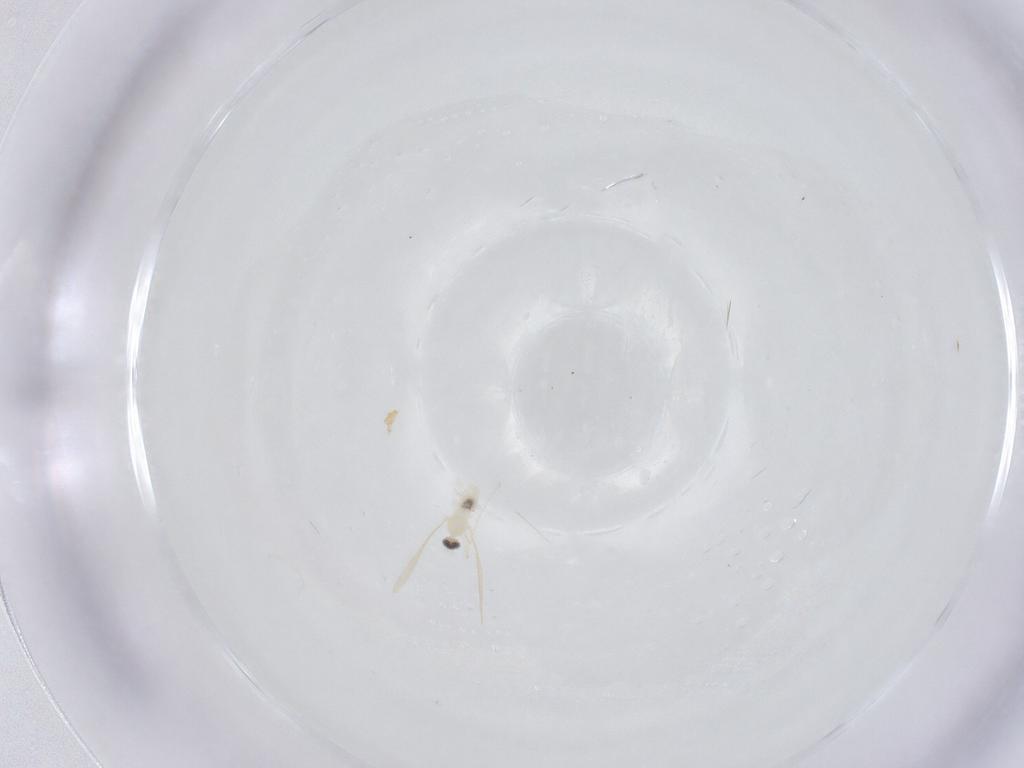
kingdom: Animalia
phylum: Arthropoda
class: Insecta
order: Diptera
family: Cecidomyiidae
